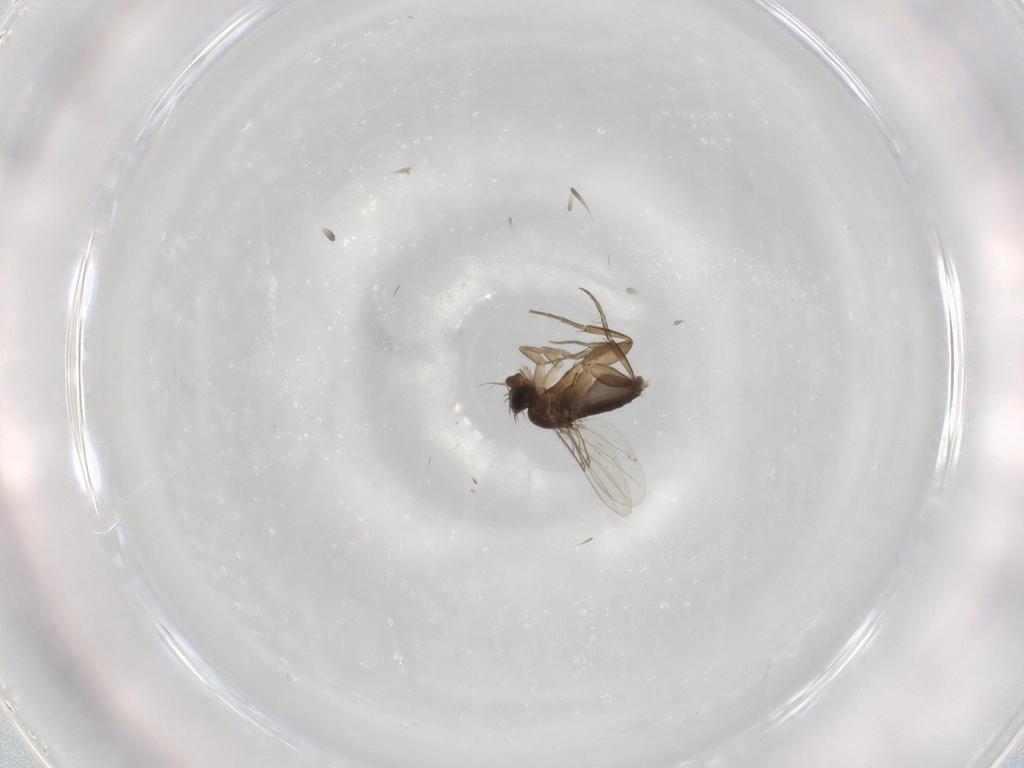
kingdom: Animalia
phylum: Arthropoda
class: Insecta
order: Diptera
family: Phoridae
